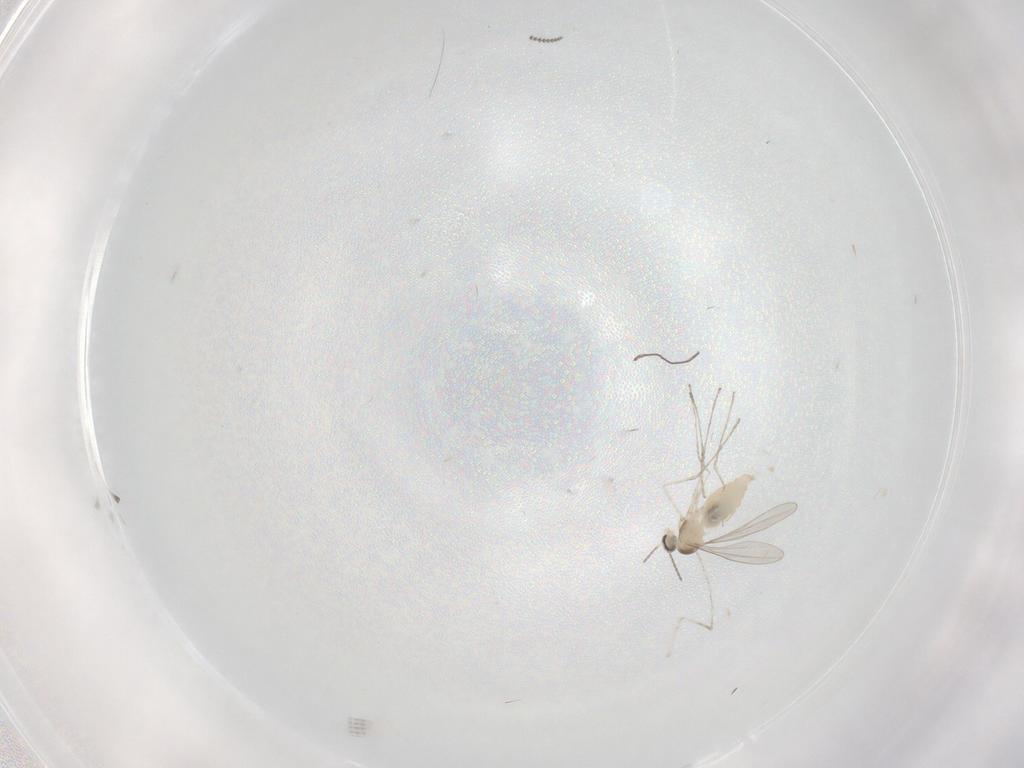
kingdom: Animalia
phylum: Arthropoda
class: Insecta
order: Diptera
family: Cecidomyiidae
